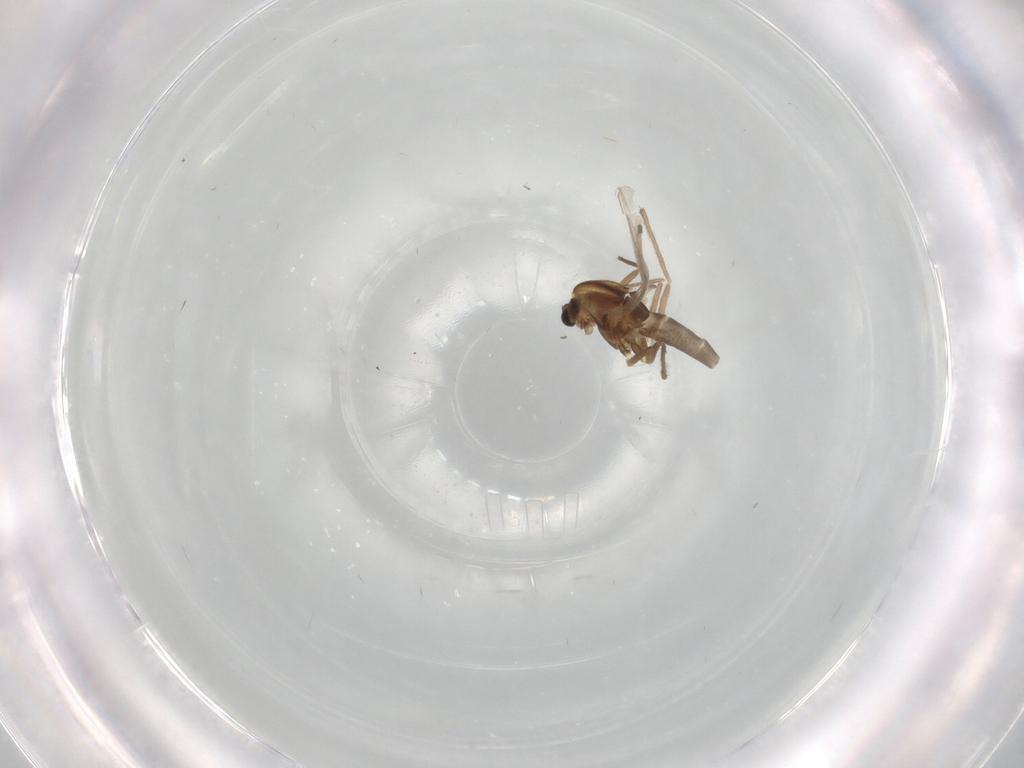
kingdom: Animalia
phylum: Arthropoda
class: Insecta
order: Diptera
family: Chironomidae
